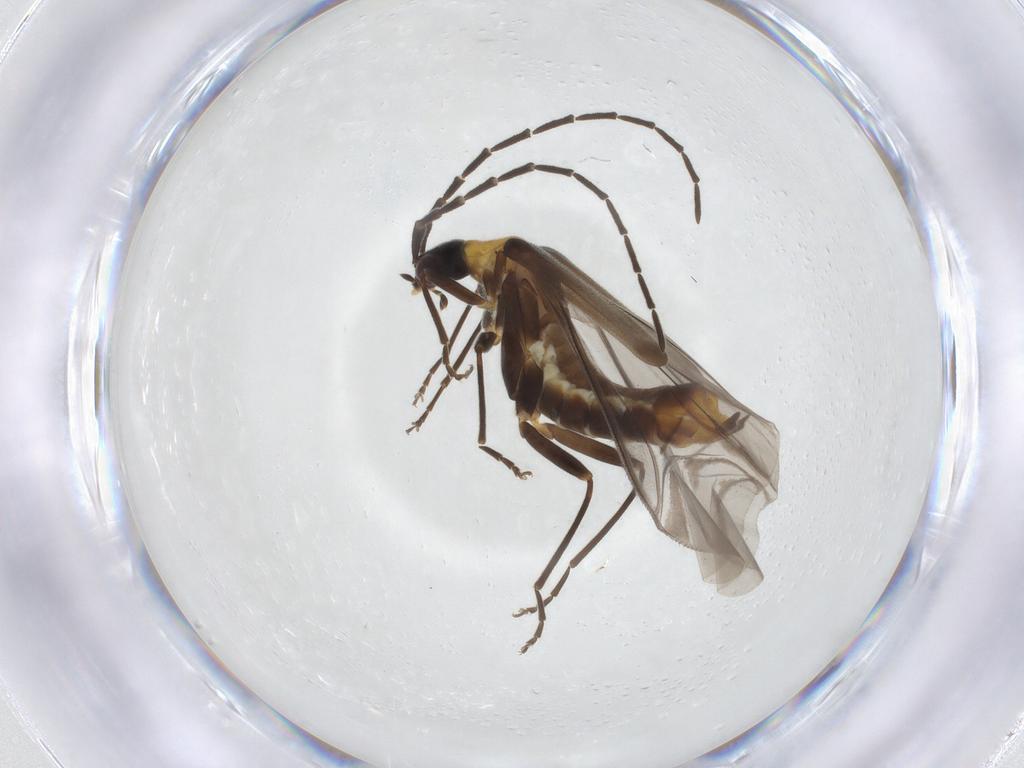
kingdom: Animalia
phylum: Arthropoda
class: Insecta
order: Coleoptera
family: Cantharidae
